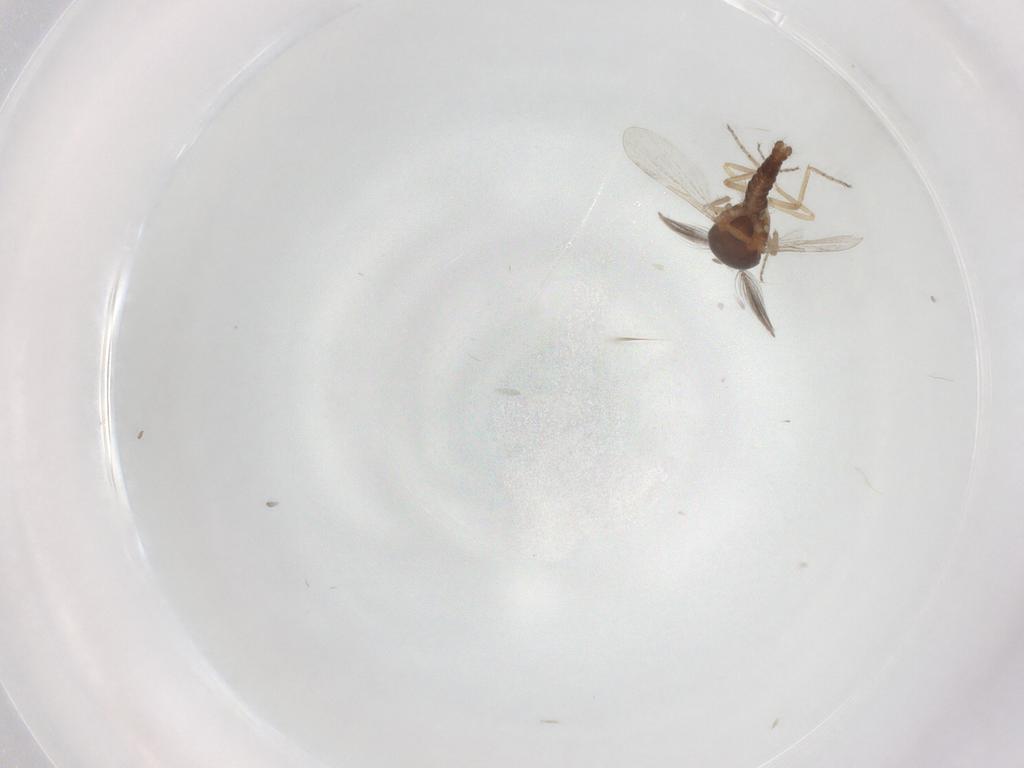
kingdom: Animalia
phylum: Arthropoda
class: Insecta
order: Diptera
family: Ceratopogonidae
